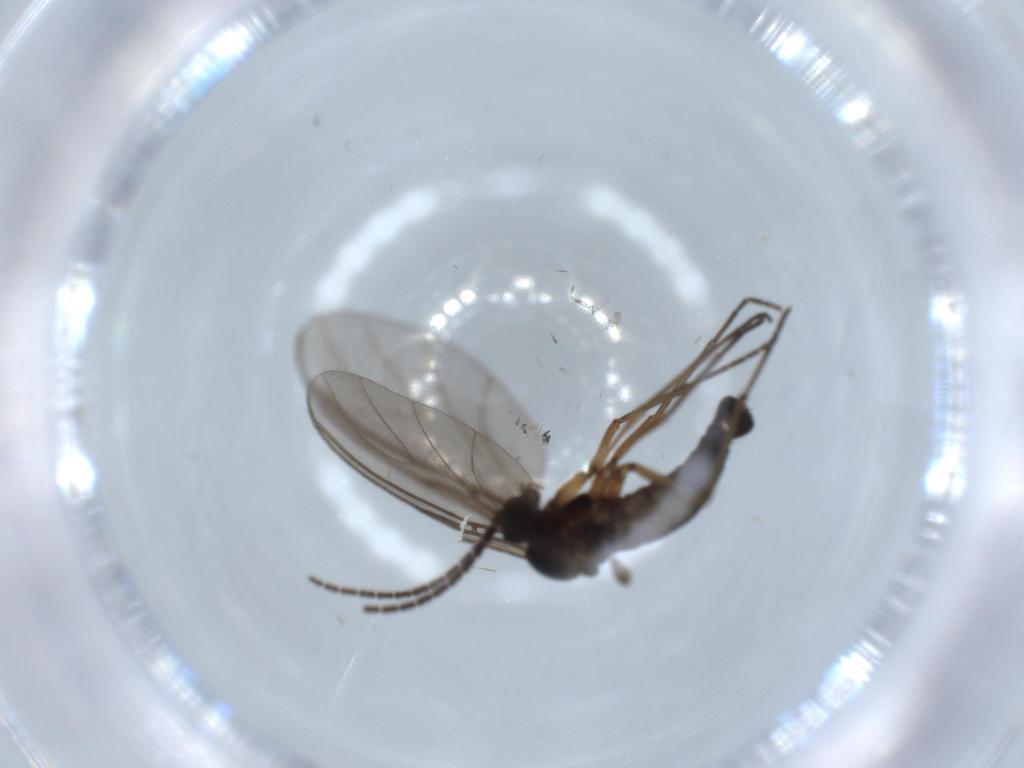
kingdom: Animalia
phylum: Arthropoda
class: Insecta
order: Diptera
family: Sciaridae
